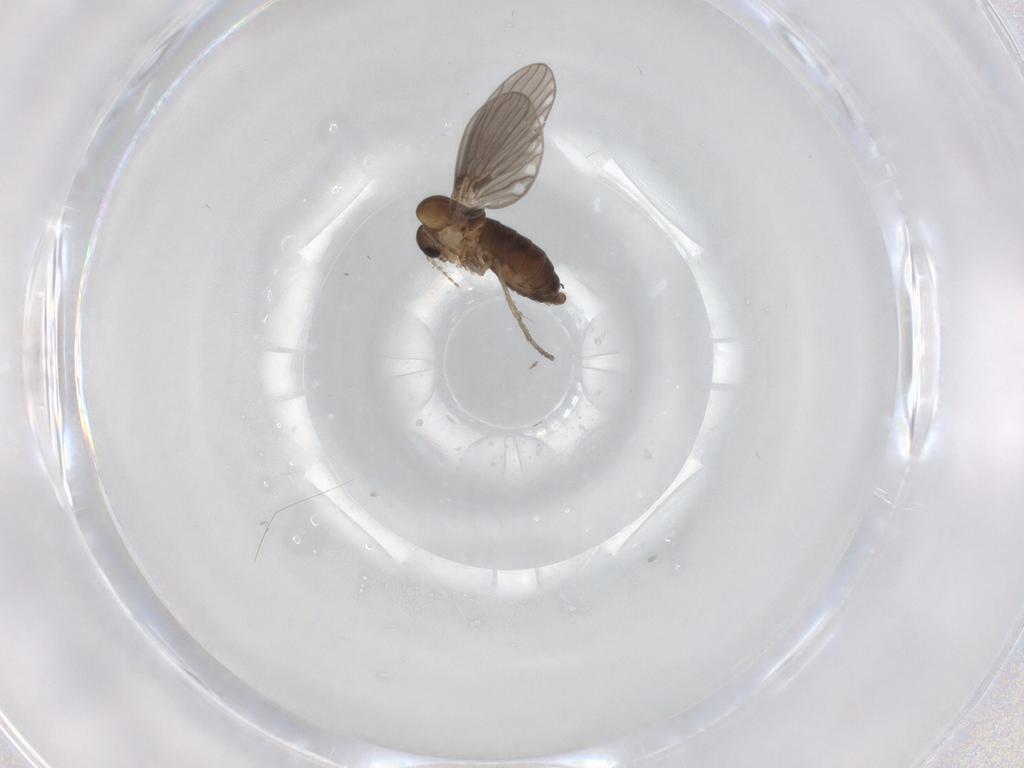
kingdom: Animalia
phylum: Arthropoda
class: Insecta
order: Diptera
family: Psychodidae
